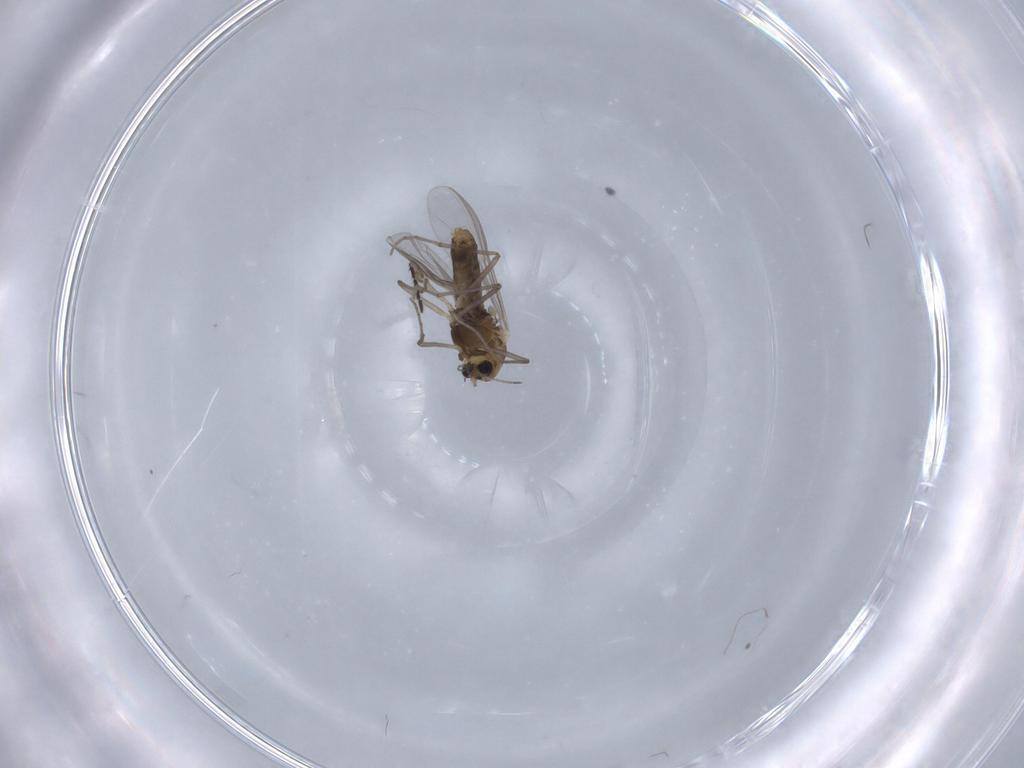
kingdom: Animalia
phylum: Arthropoda
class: Insecta
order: Diptera
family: Chironomidae
